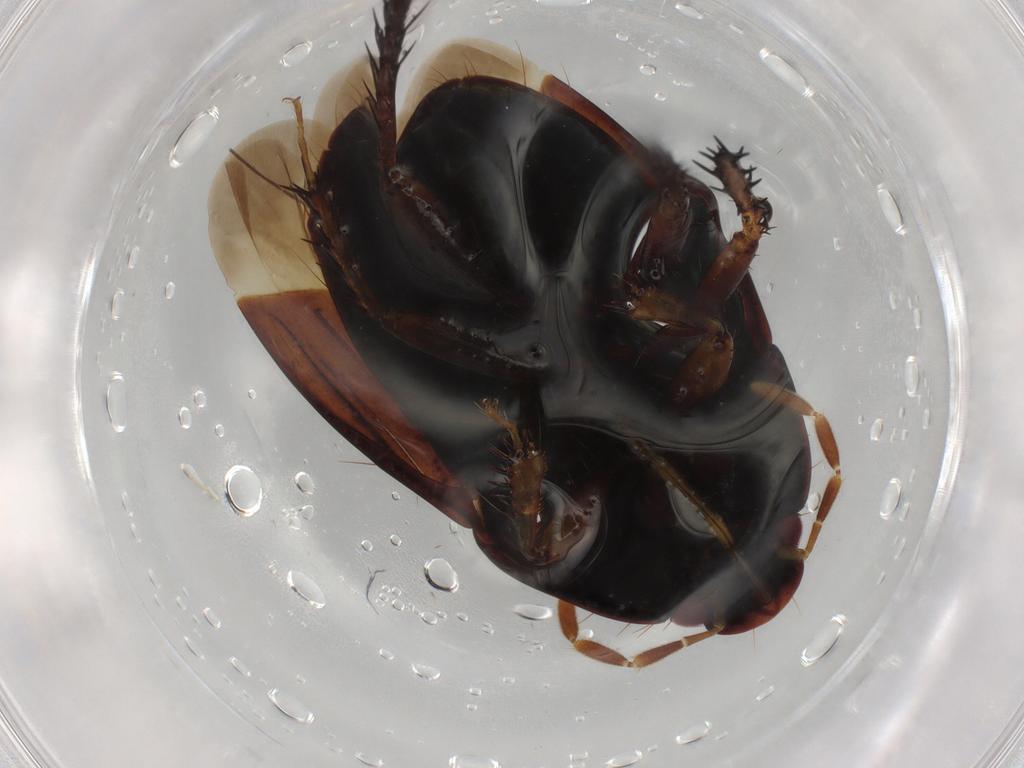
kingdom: Animalia
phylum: Arthropoda
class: Insecta
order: Hemiptera
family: Cydnidae
